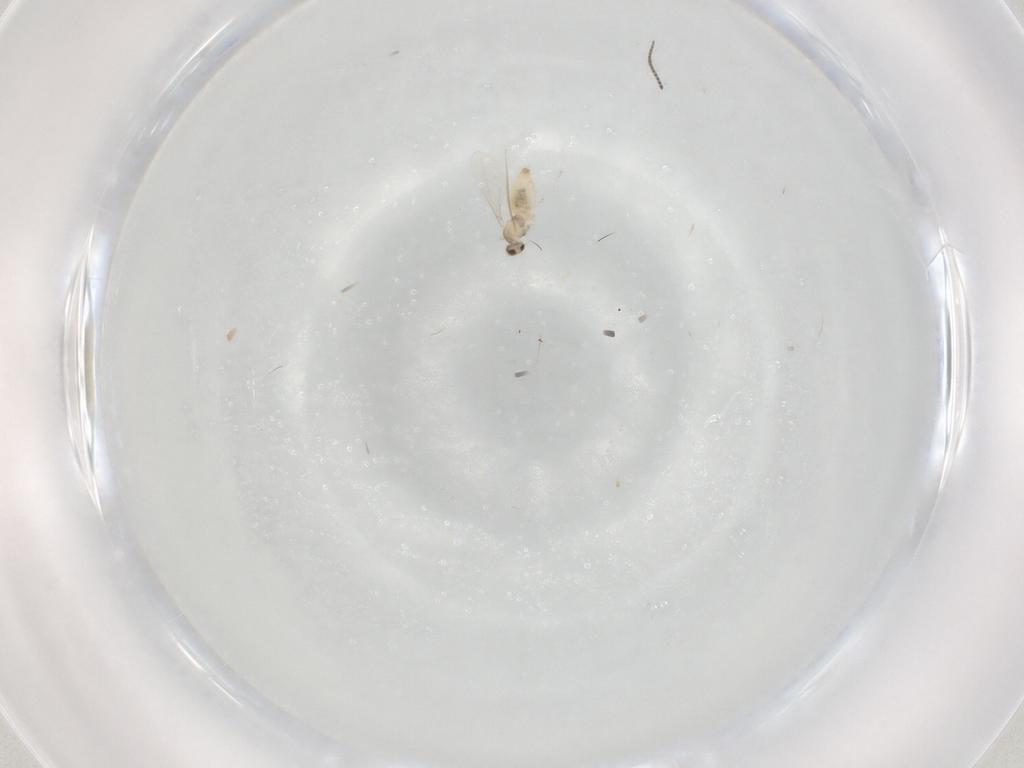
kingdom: Animalia
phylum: Arthropoda
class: Insecta
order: Diptera
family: Cecidomyiidae
